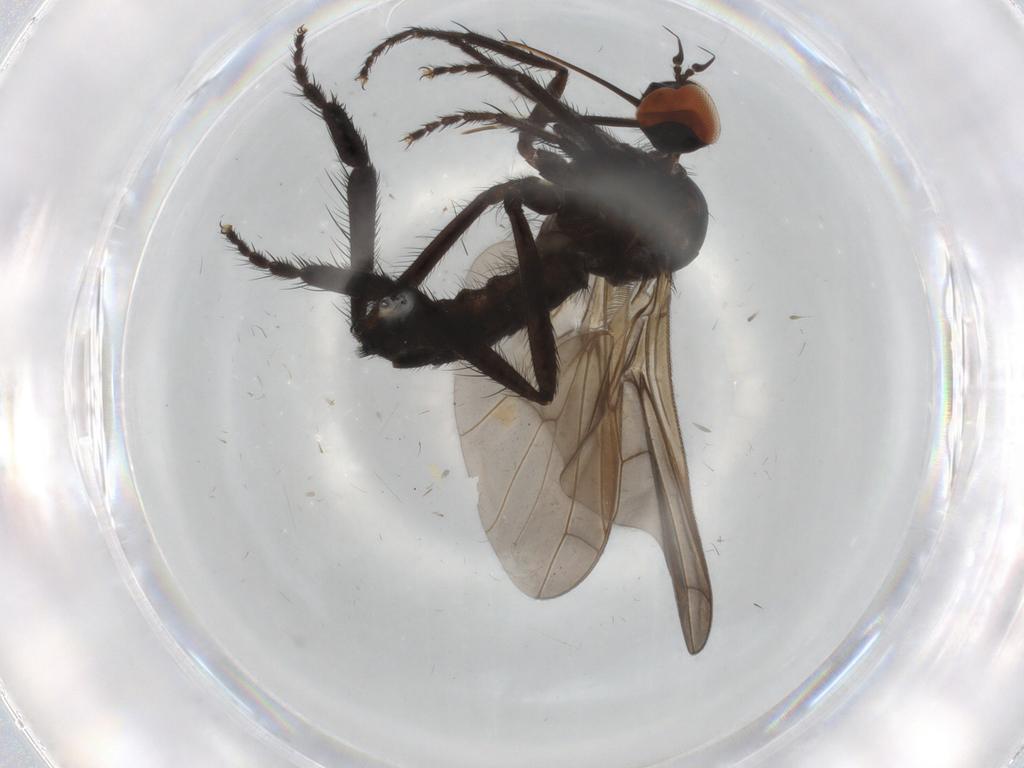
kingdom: Animalia
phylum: Arthropoda
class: Insecta
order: Diptera
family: Empididae
